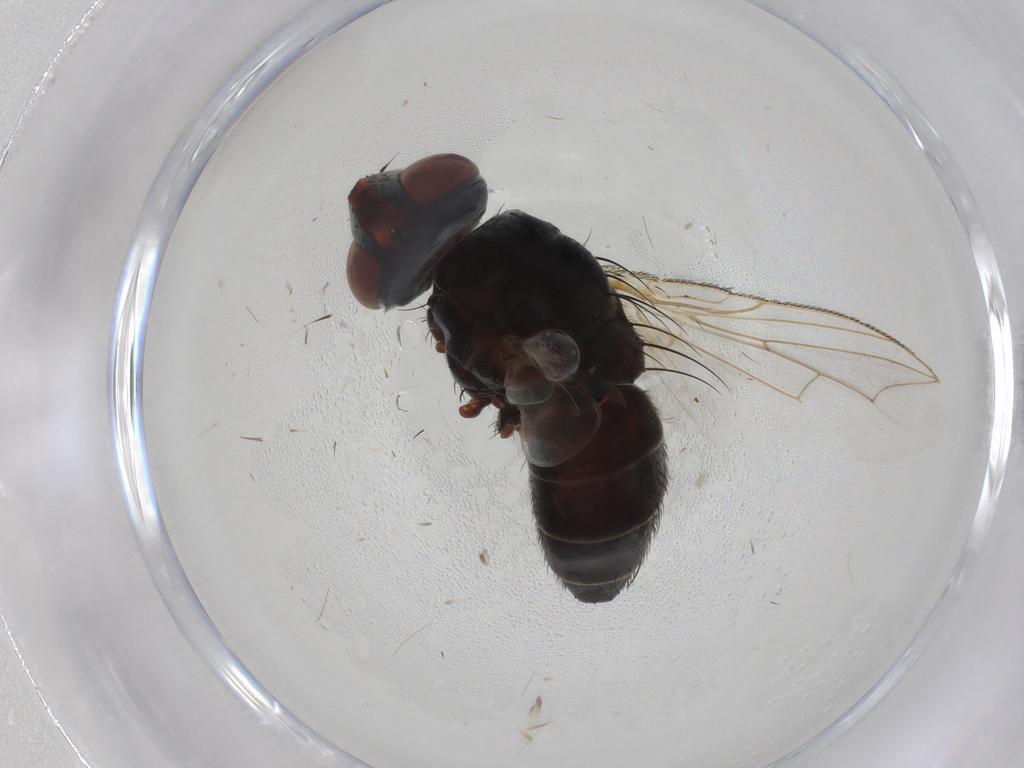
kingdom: Animalia
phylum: Arthropoda
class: Insecta
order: Diptera
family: Sarcophagidae
